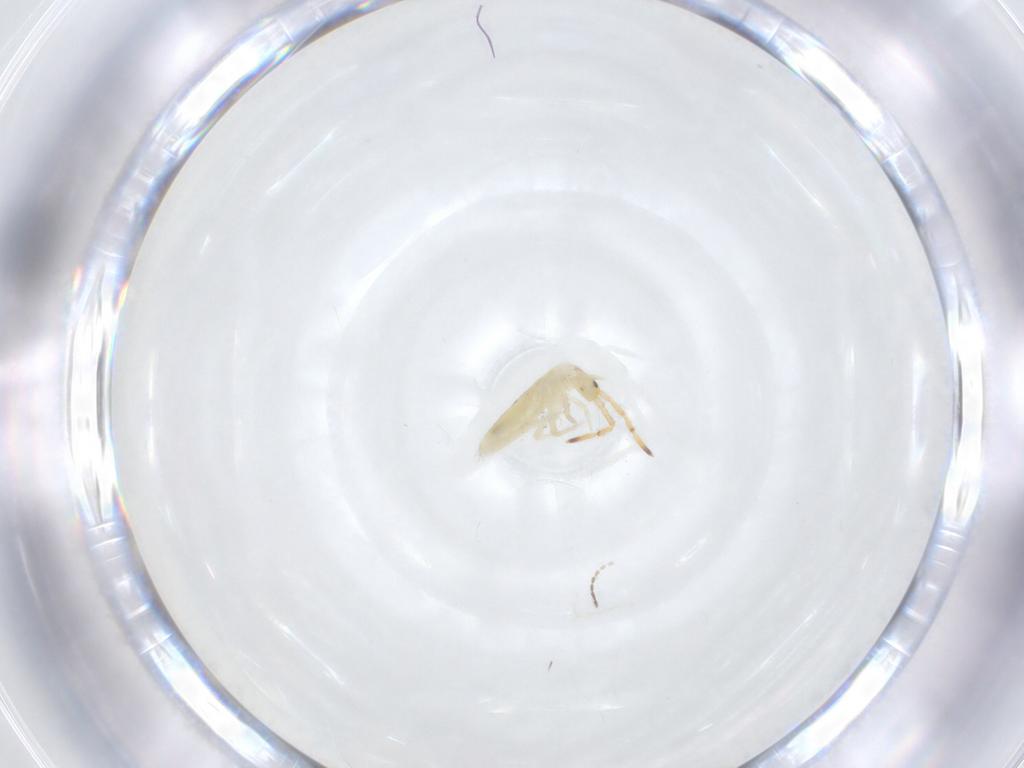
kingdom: Animalia
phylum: Arthropoda
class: Collembola
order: Entomobryomorpha
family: Entomobryidae
